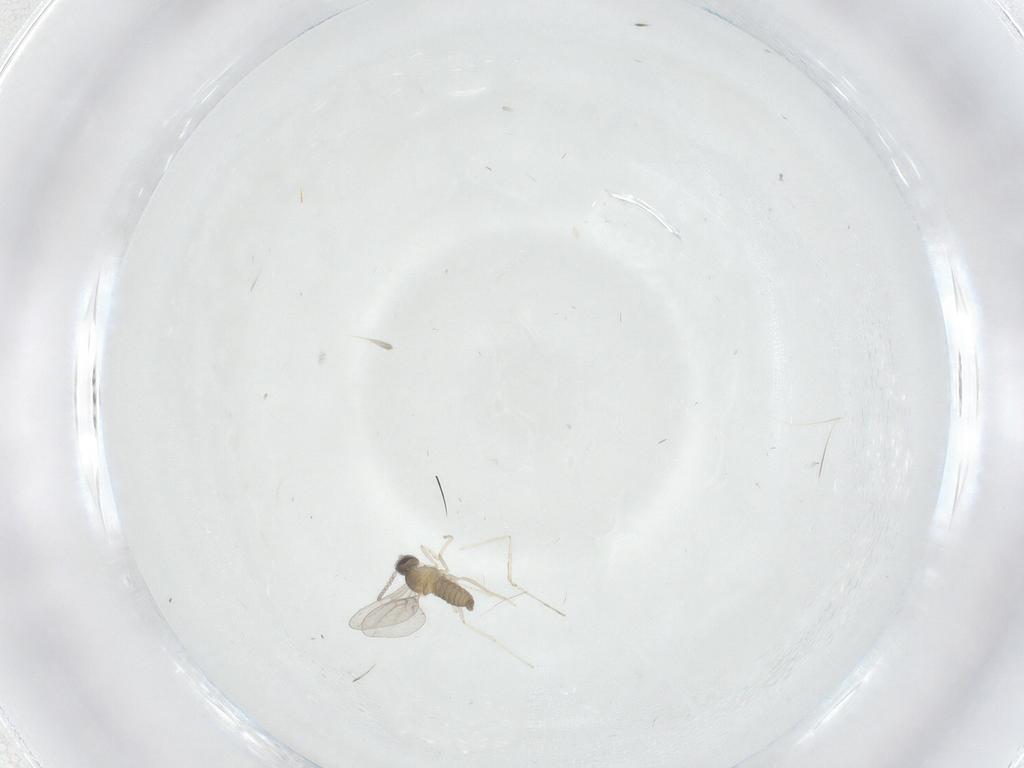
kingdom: Animalia
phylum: Arthropoda
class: Insecta
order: Diptera
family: Cecidomyiidae
